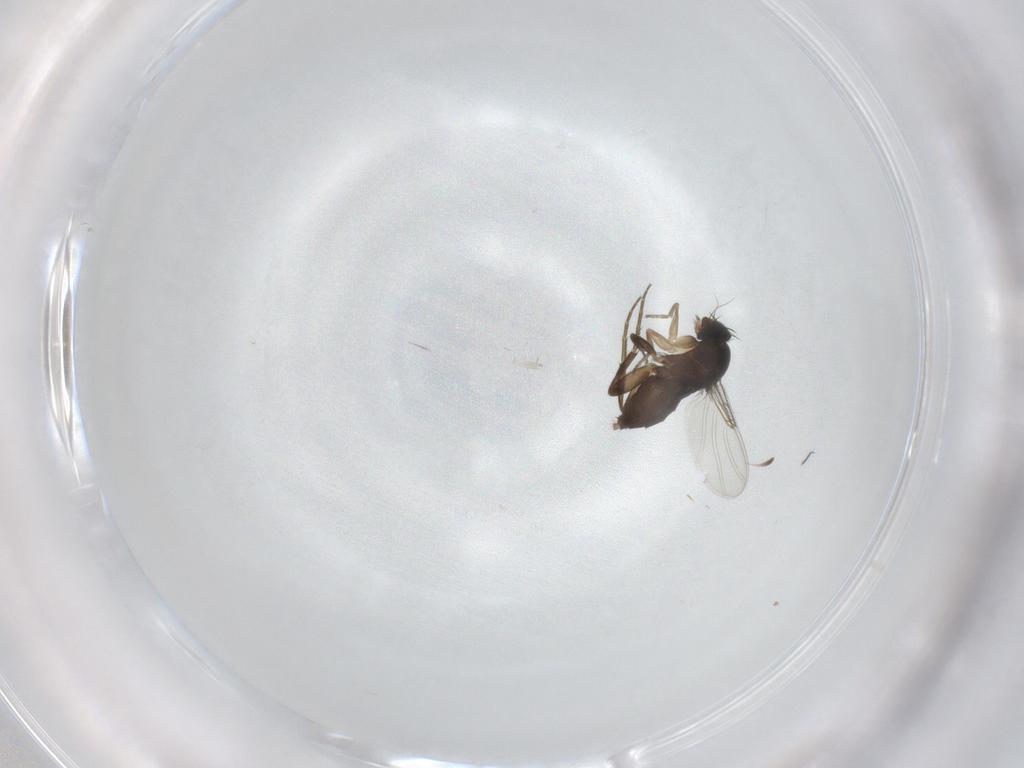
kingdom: Animalia
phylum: Arthropoda
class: Insecta
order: Diptera
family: Phoridae
